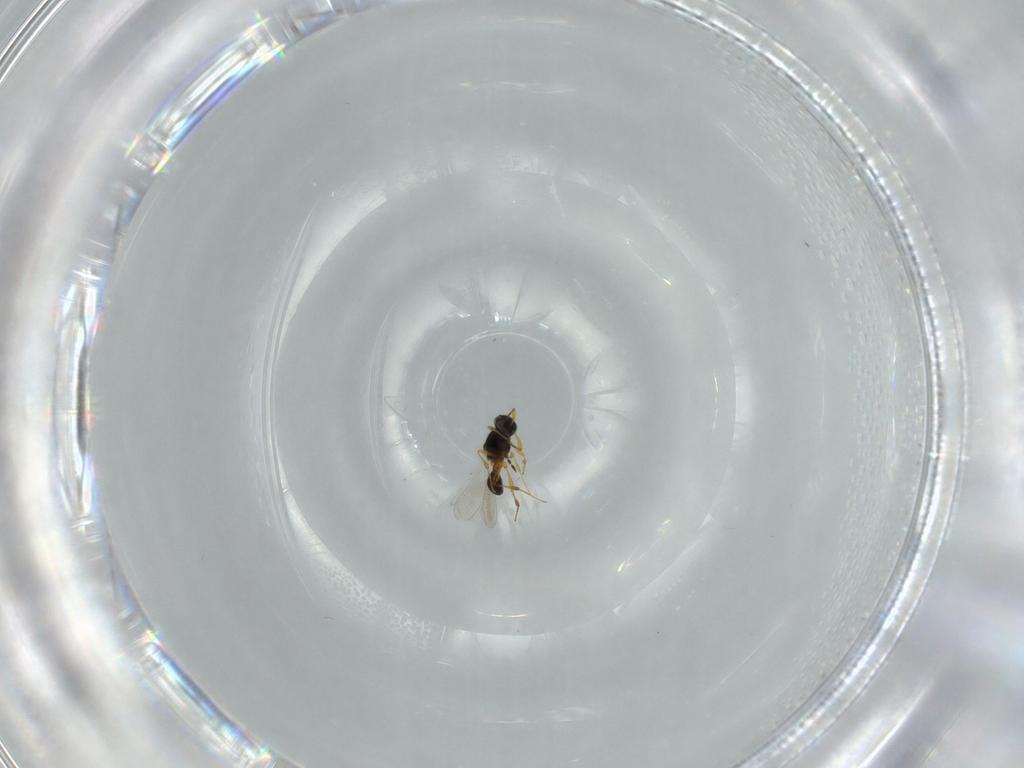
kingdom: Animalia
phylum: Arthropoda
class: Insecta
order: Hymenoptera
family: Platygastridae
